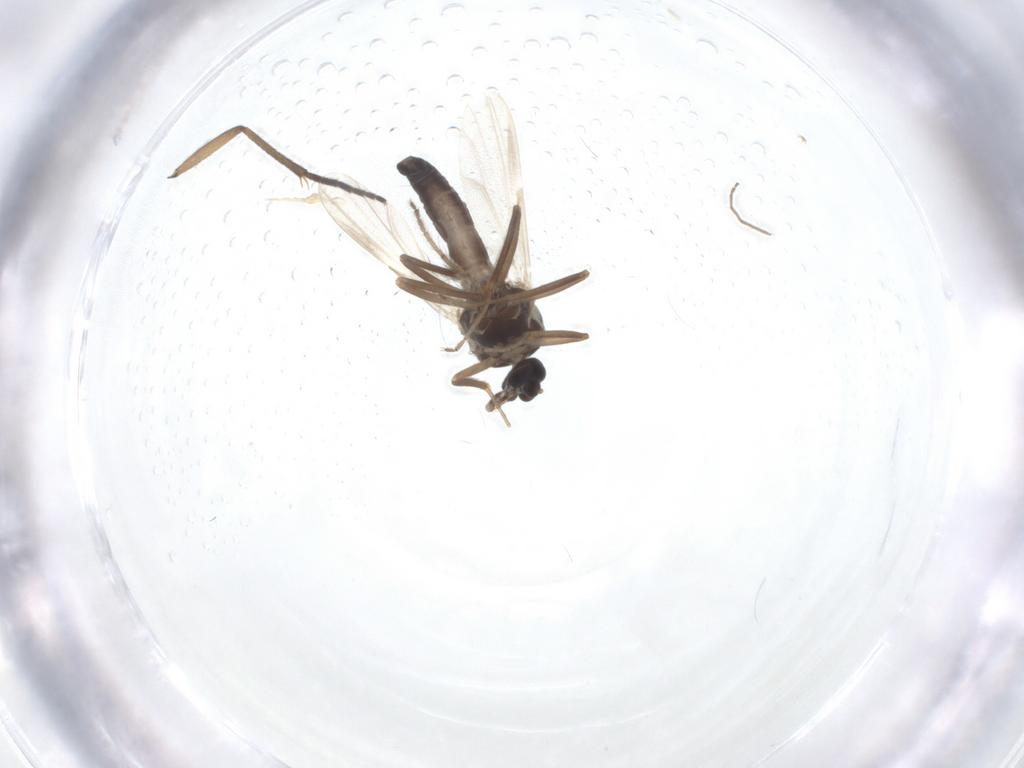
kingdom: Animalia
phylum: Arthropoda
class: Insecta
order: Diptera
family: Ceratopogonidae
